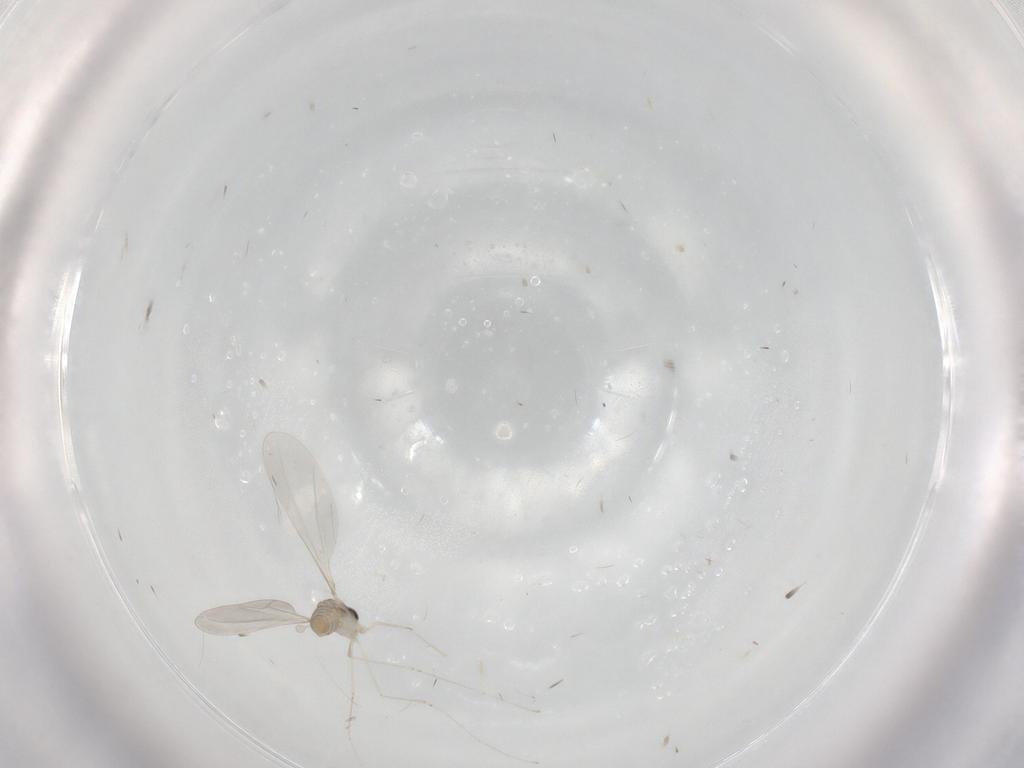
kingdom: Animalia
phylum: Arthropoda
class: Insecta
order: Diptera
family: Cecidomyiidae
